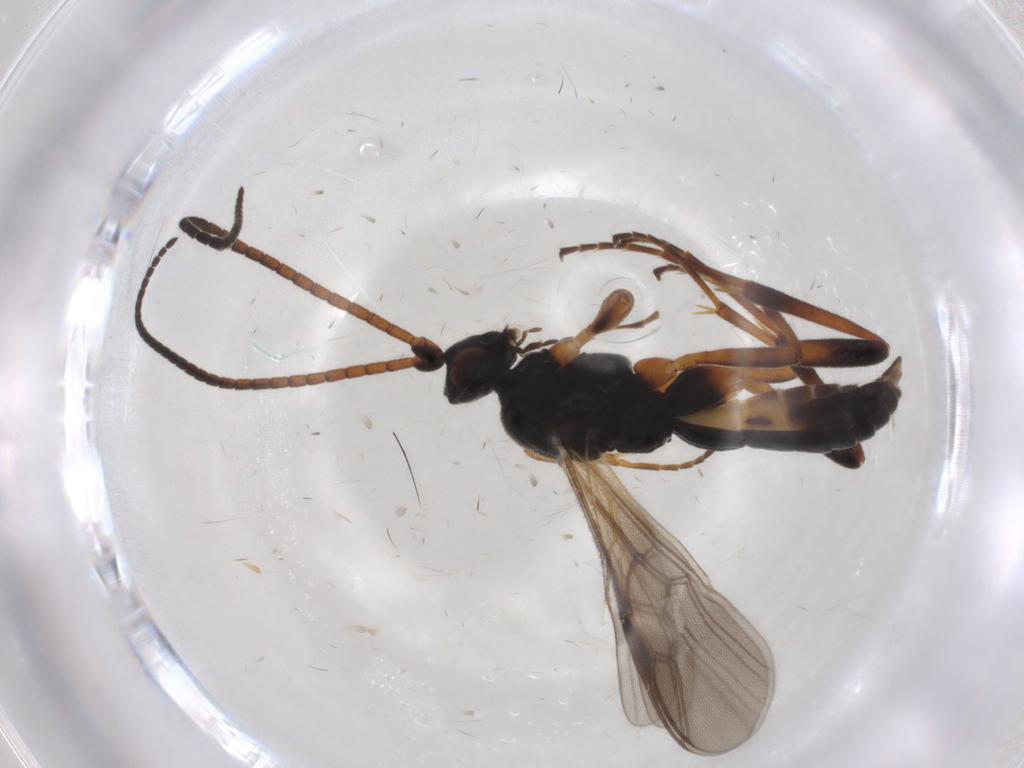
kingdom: Animalia
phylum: Arthropoda
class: Insecta
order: Hymenoptera
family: Braconidae
